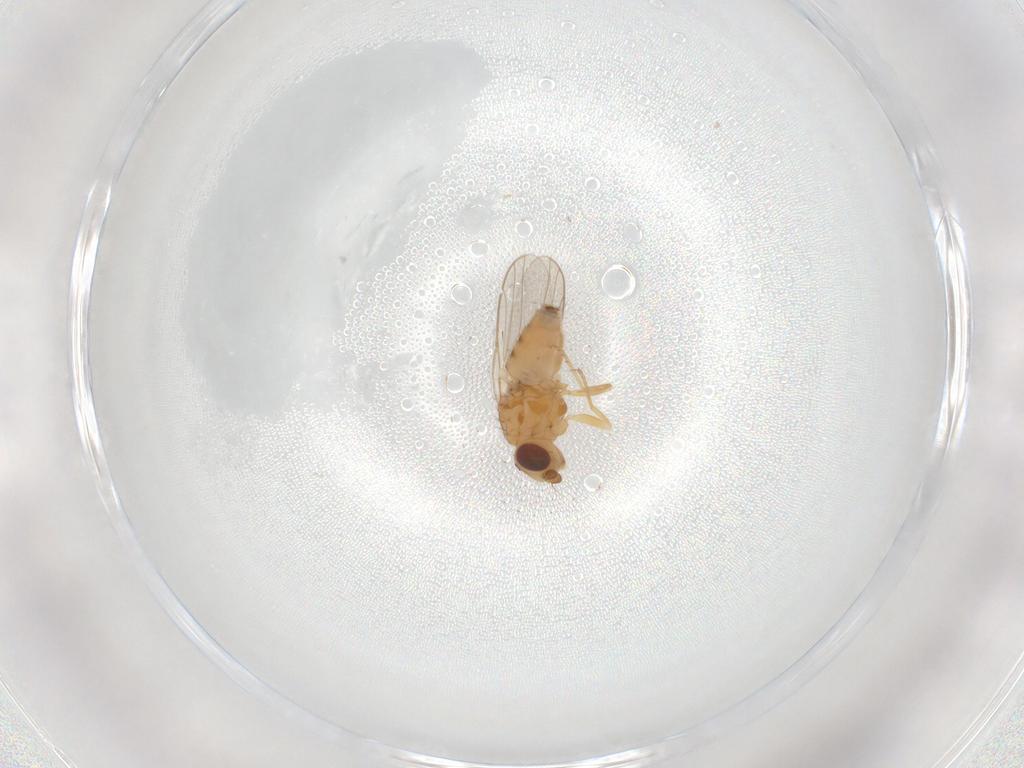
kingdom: Animalia
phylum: Arthropoda
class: Insecta
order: Diptera
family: Chloropidae
